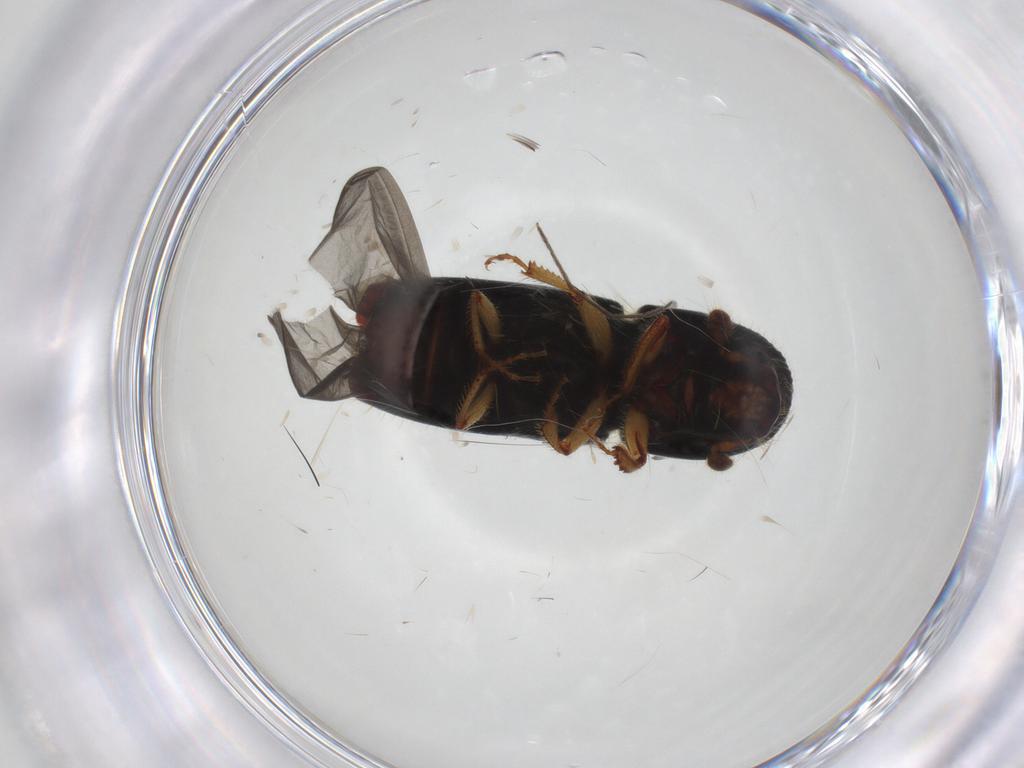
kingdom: Animalia
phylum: Arthropoda
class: Insecta
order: Coleoptera
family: Curculionidae
